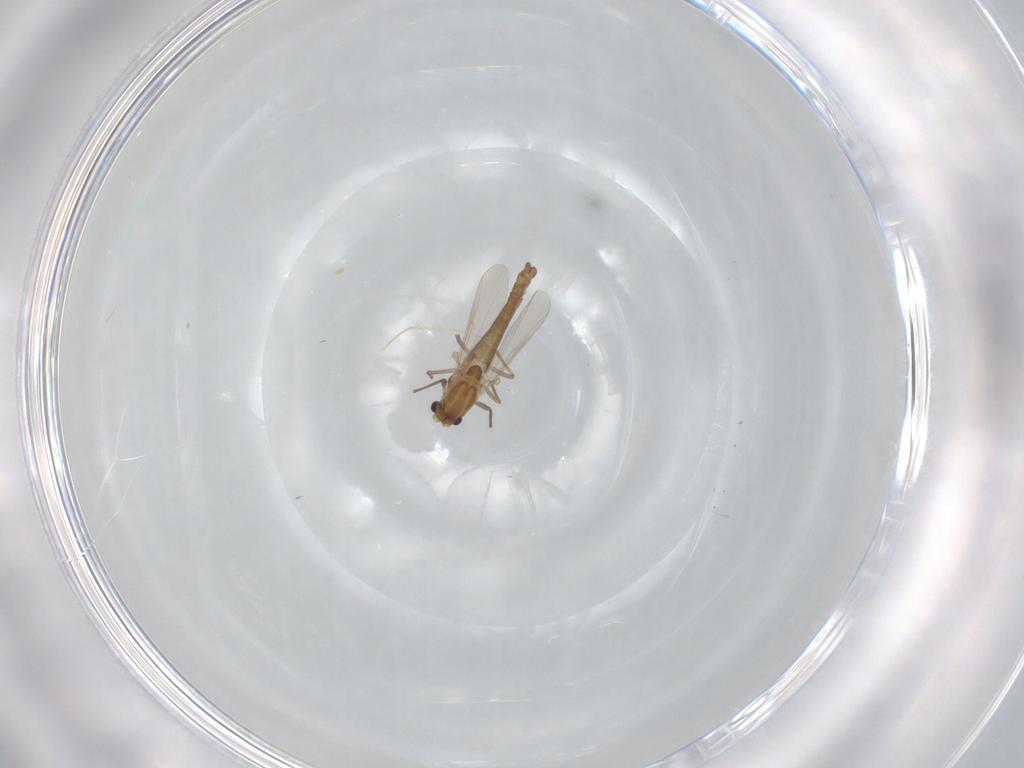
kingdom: Animalia
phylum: Arthropoda
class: Insecta
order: Diptera
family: Chironomidae
